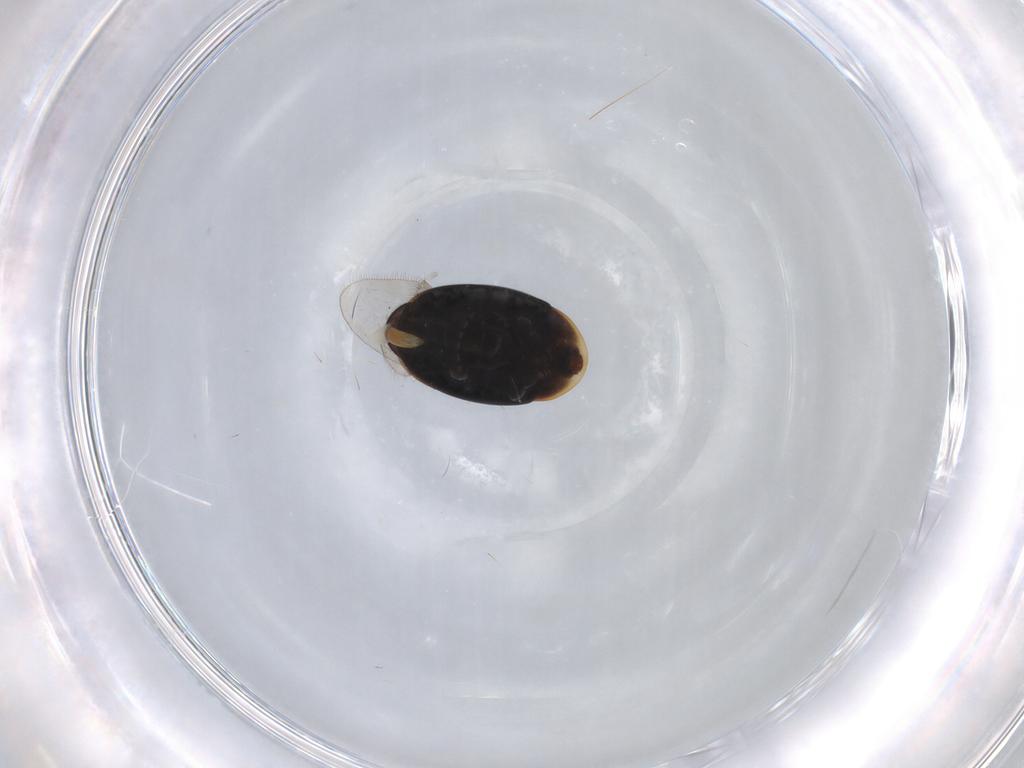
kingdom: Animalia
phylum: Arthropoda
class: Insecta
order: Coleoptera
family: Corylophidae
